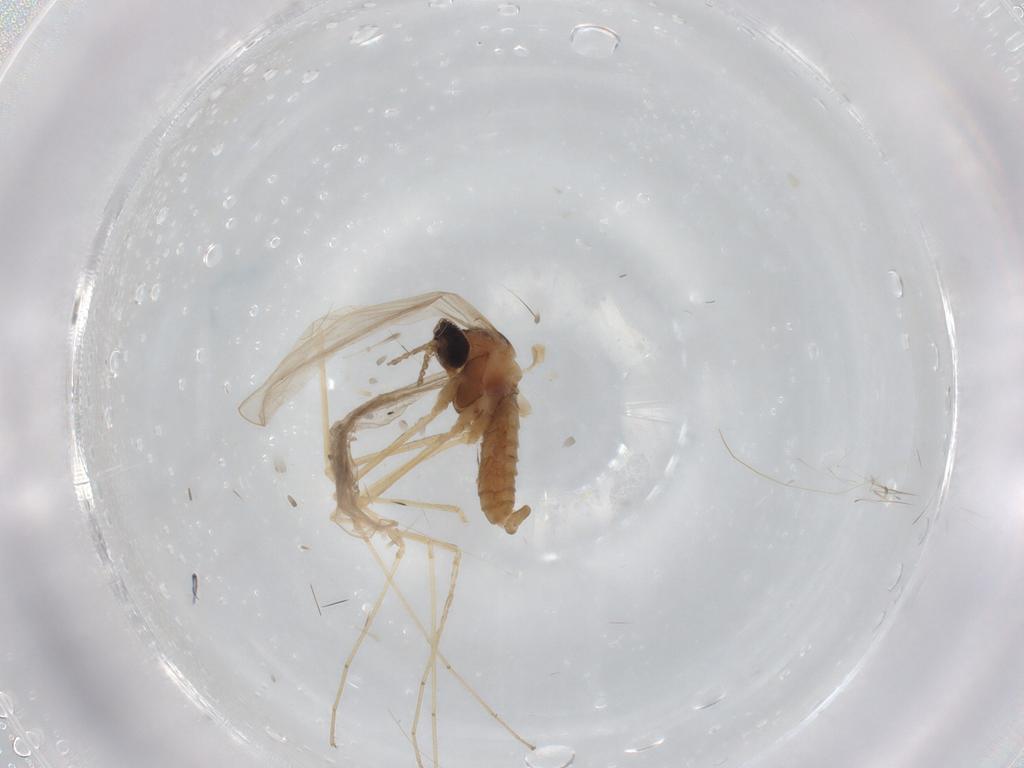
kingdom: Animalia
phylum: Arthropoda
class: Insecta
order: Diptera
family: Cecidomyiidae
